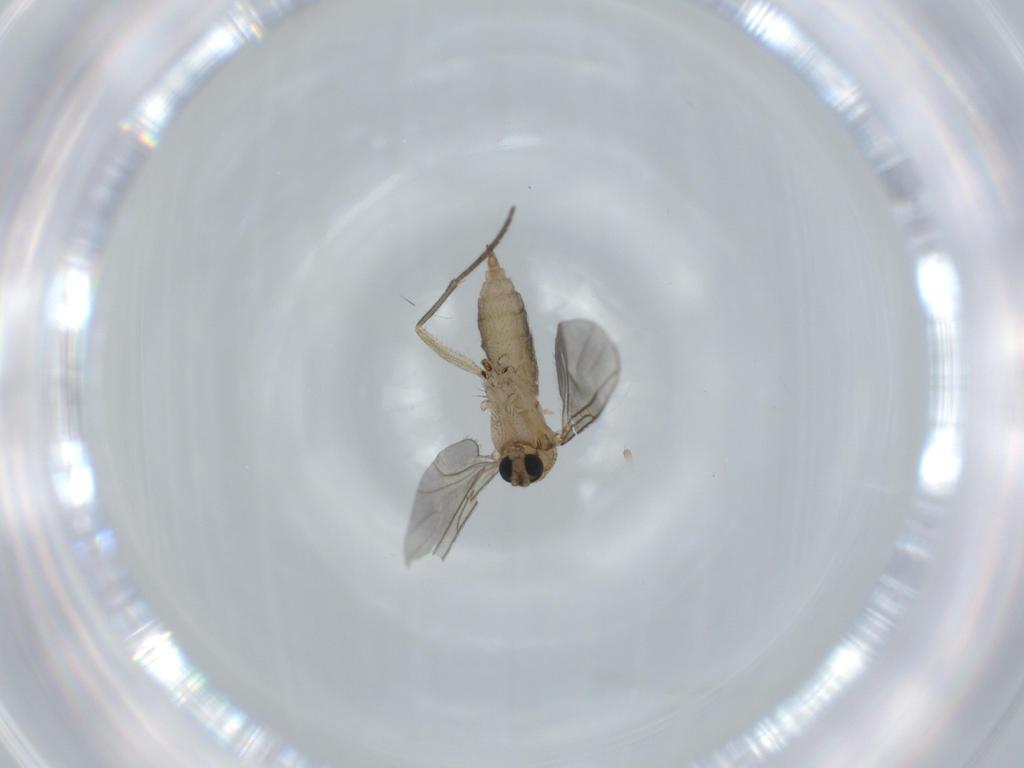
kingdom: Animalia
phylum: Arthropoda
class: Insecta
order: Diptera
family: Sciaridae
